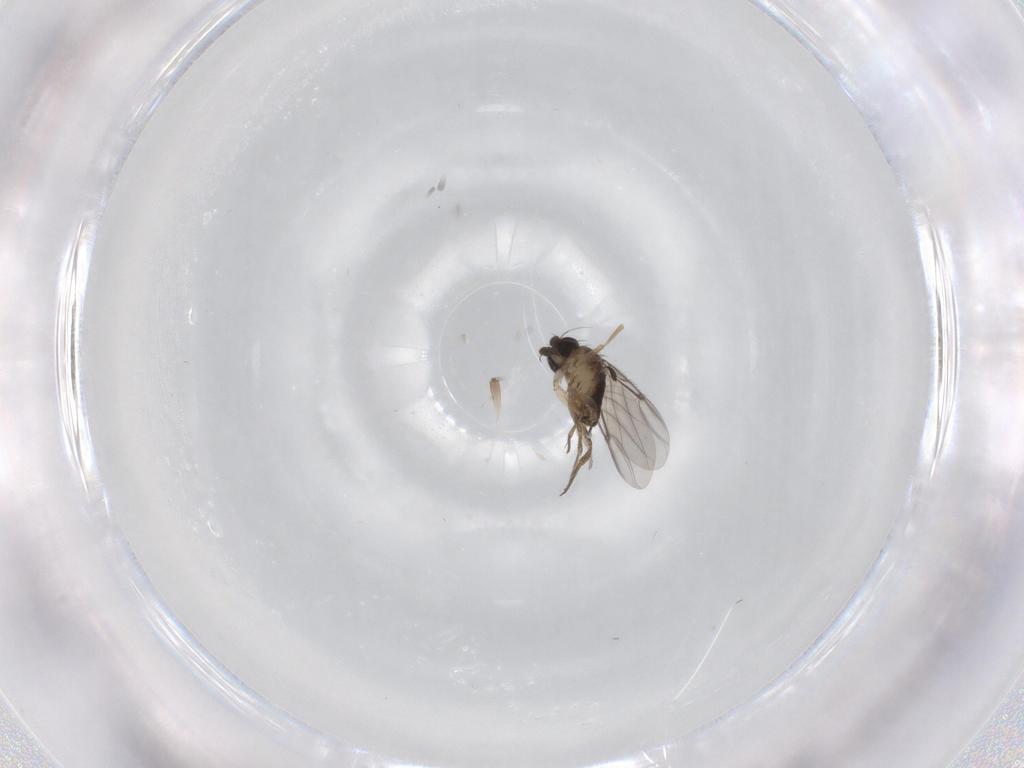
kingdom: Animalia
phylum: Arthropoda
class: Insecta
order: Diptera
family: Phoridae
